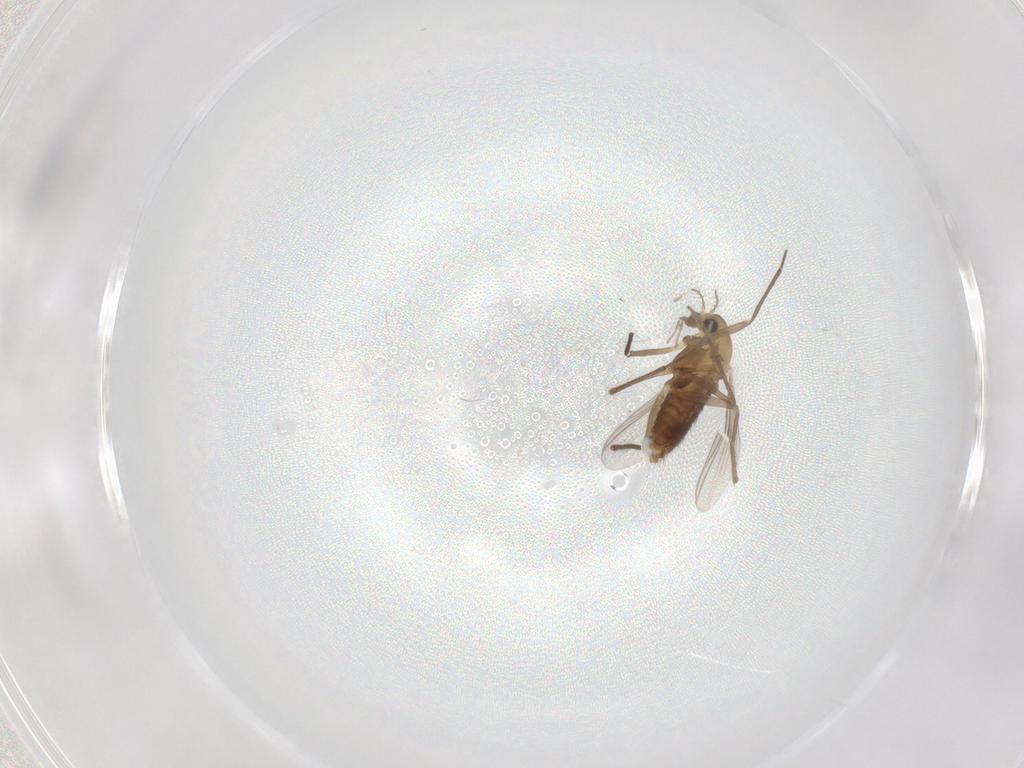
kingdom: Animalia
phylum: Arthropoda
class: Insecta
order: Diptera
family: Chironomidae
